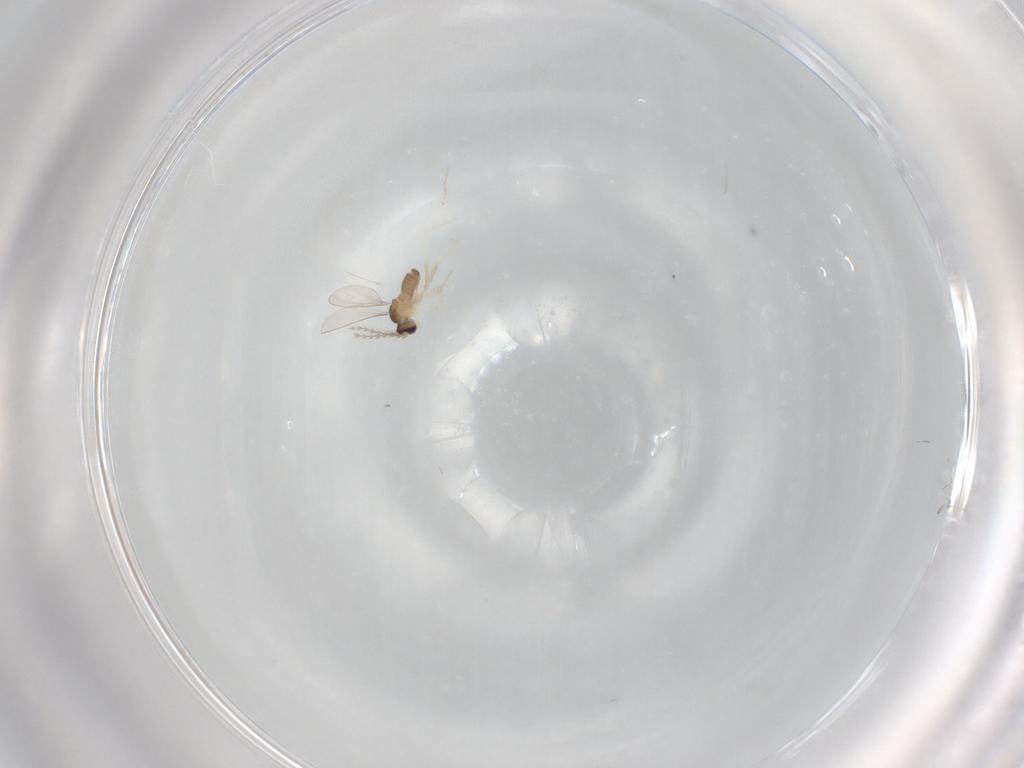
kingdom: Animalia
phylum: Arthropoda
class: Insecta
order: Diptera
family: Cecidomyiidae
